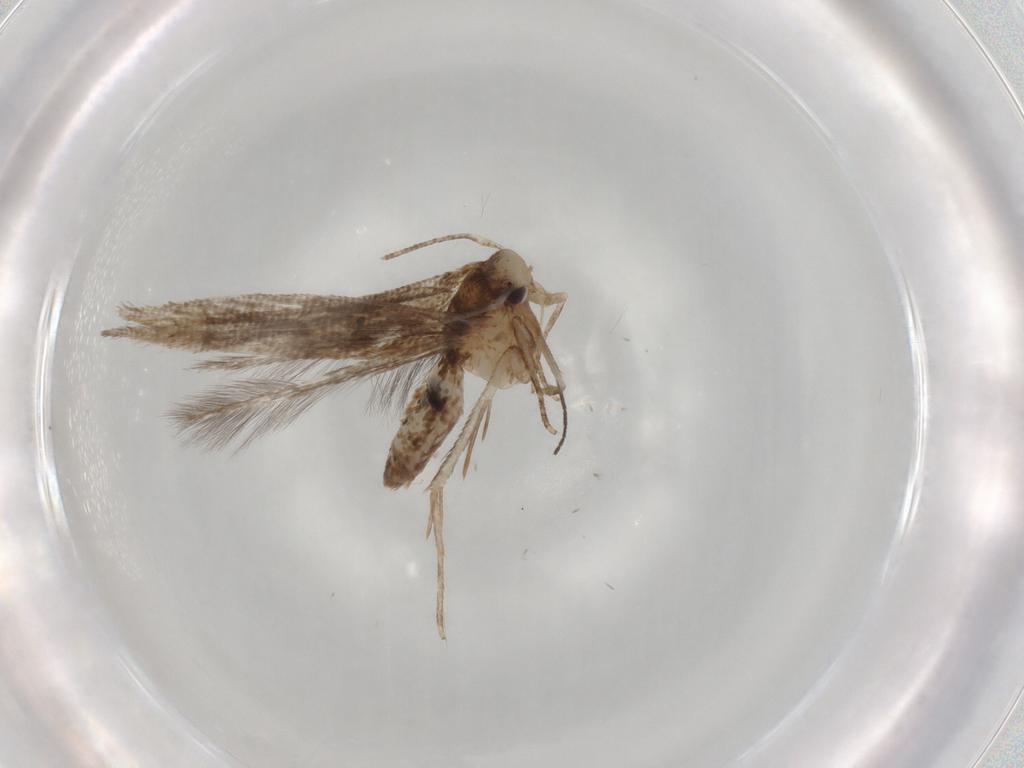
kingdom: Animalia
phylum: Arthropoda
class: Insecta
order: Lepidoptera
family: Cosmopterigidae
